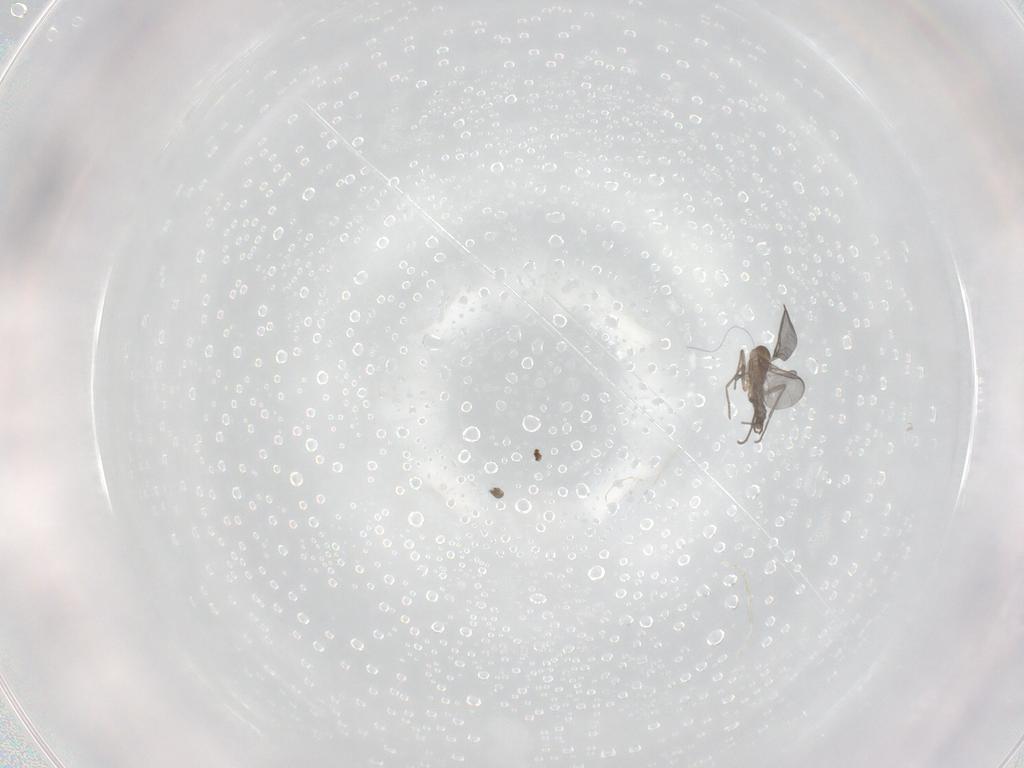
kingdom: Animalia
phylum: Arthropoda
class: Insecta
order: Diptera
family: Sciaridae
